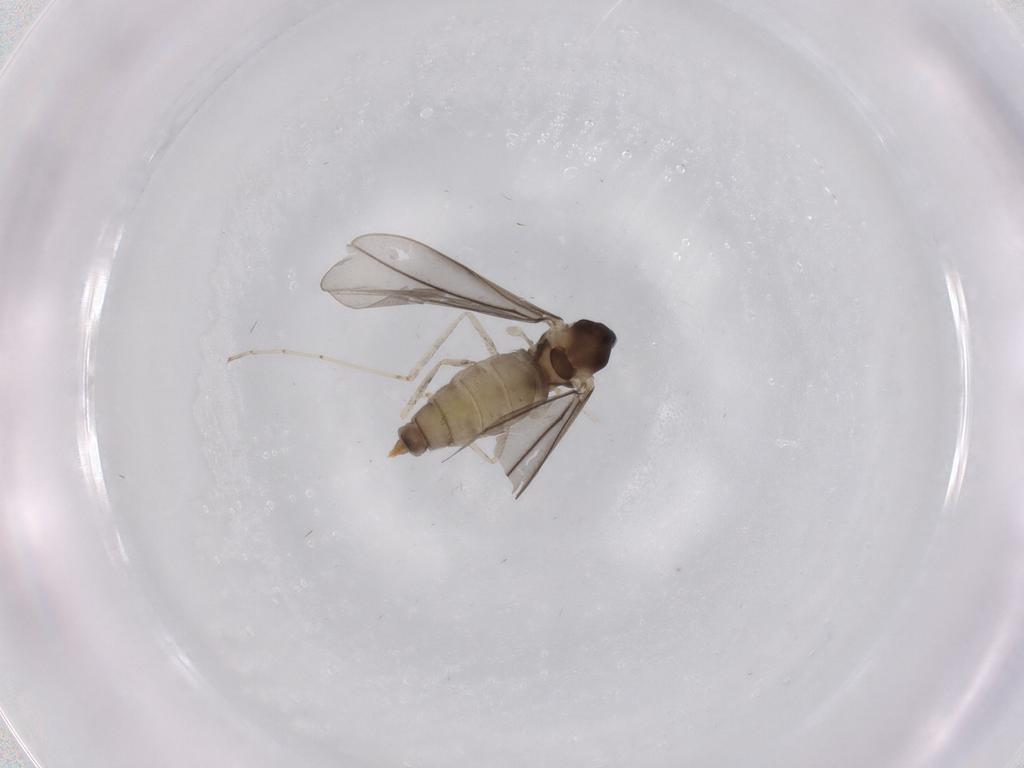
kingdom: Animalia
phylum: Arthropoda
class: Insecta
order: Diptera
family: Cecidomyiidae
